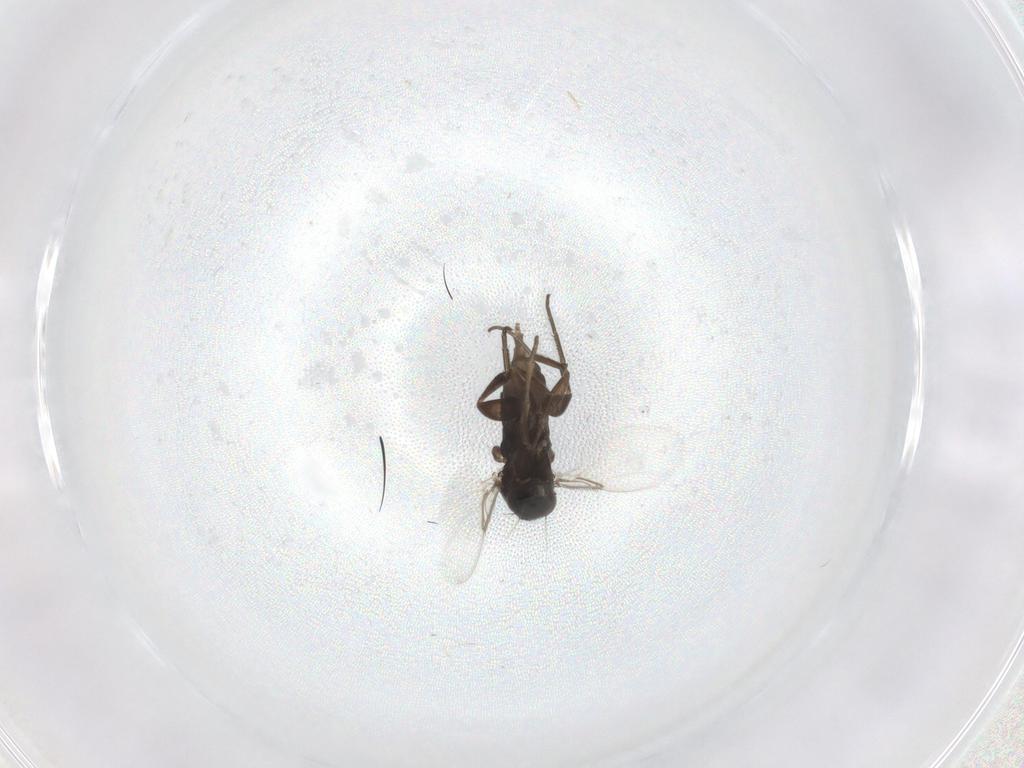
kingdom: Animalia
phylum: Arthropoda
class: Insecta
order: Diptera
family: Phoridae
